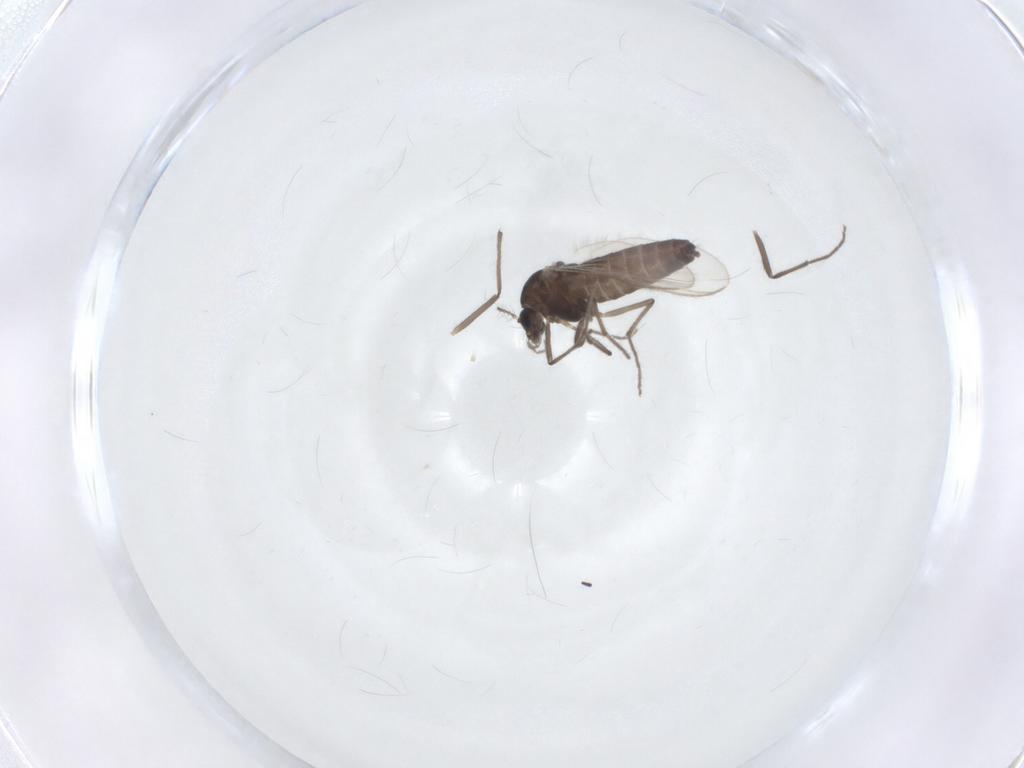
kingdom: Animalia
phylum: Arthropoda
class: Insecta
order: Diptera
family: Chironomidae
